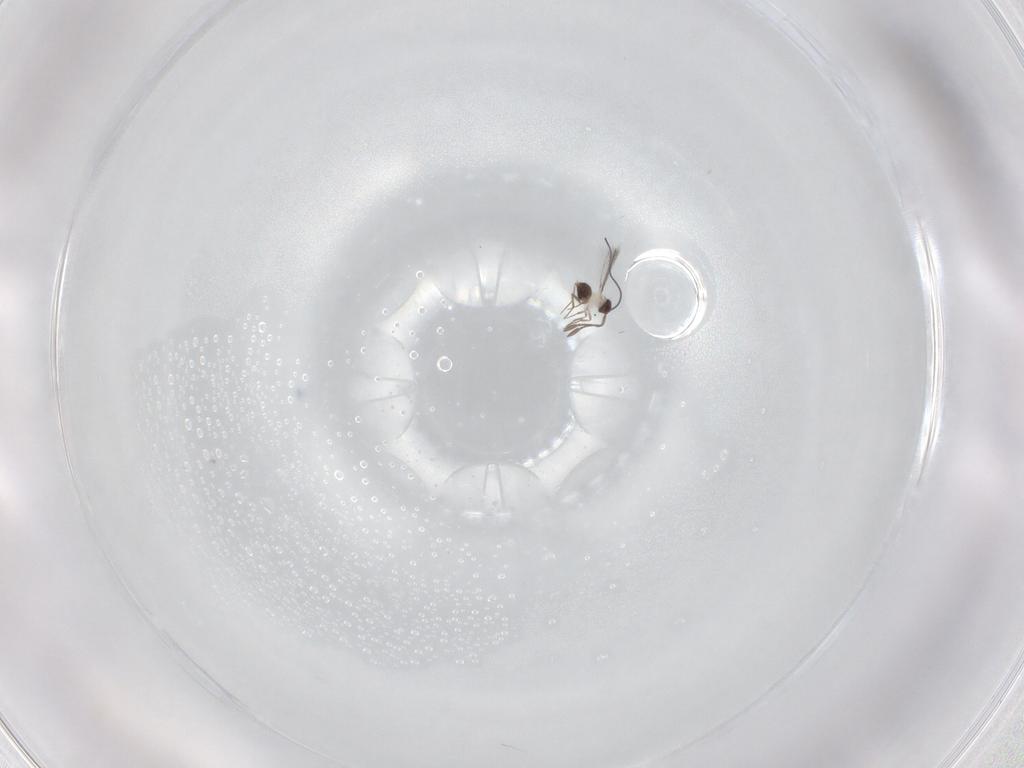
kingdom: Animalia
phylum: Arthropoda
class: Insecta
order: Hymenoptera
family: Mymaridae
